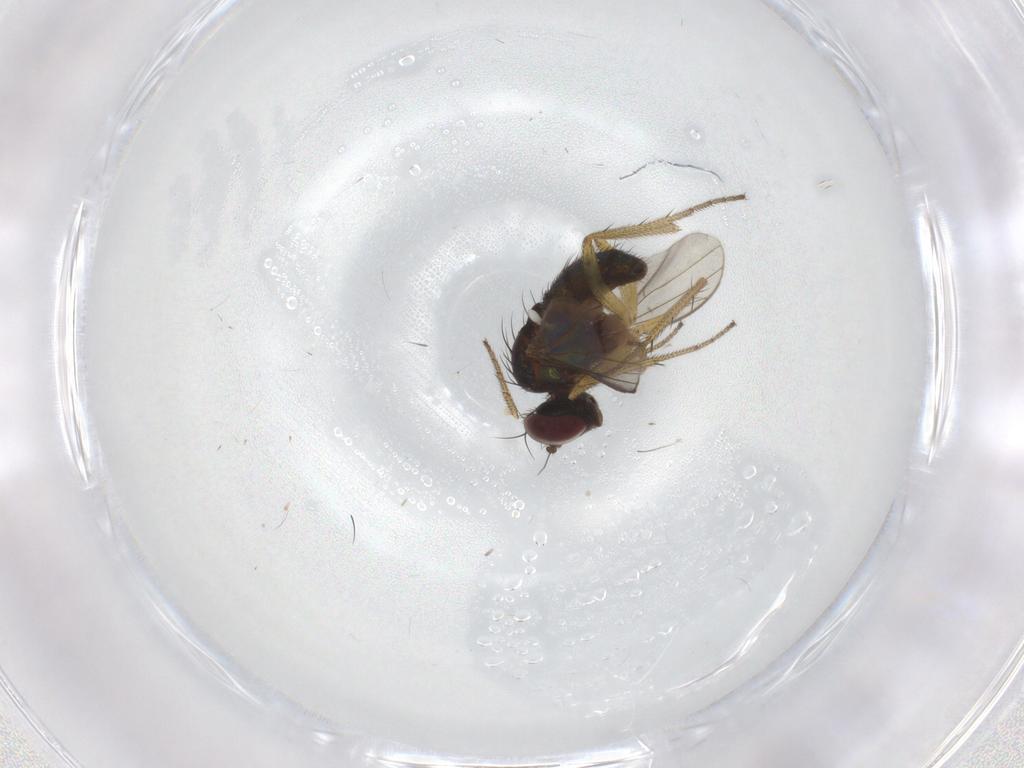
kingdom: Animalia
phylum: Arthropoda
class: Insecta
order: Diptera
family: Dolichopodidae
